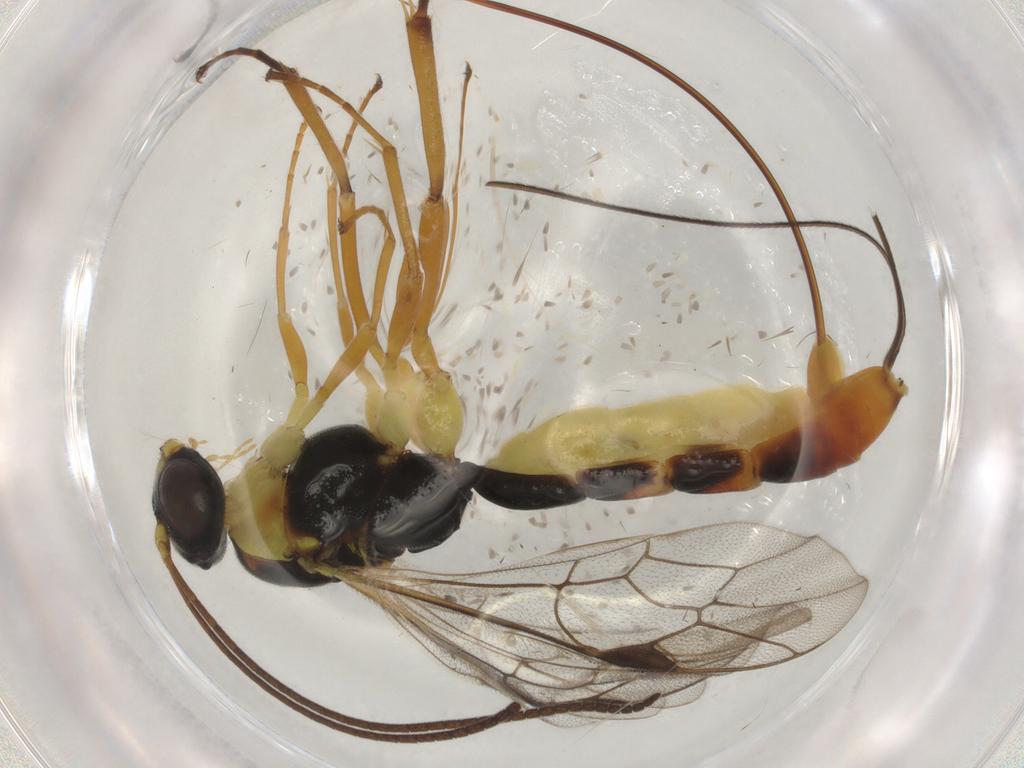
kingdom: Animalia
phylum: Arthropoda
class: Insecta
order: Hymenoptera
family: Ichneumonidae
